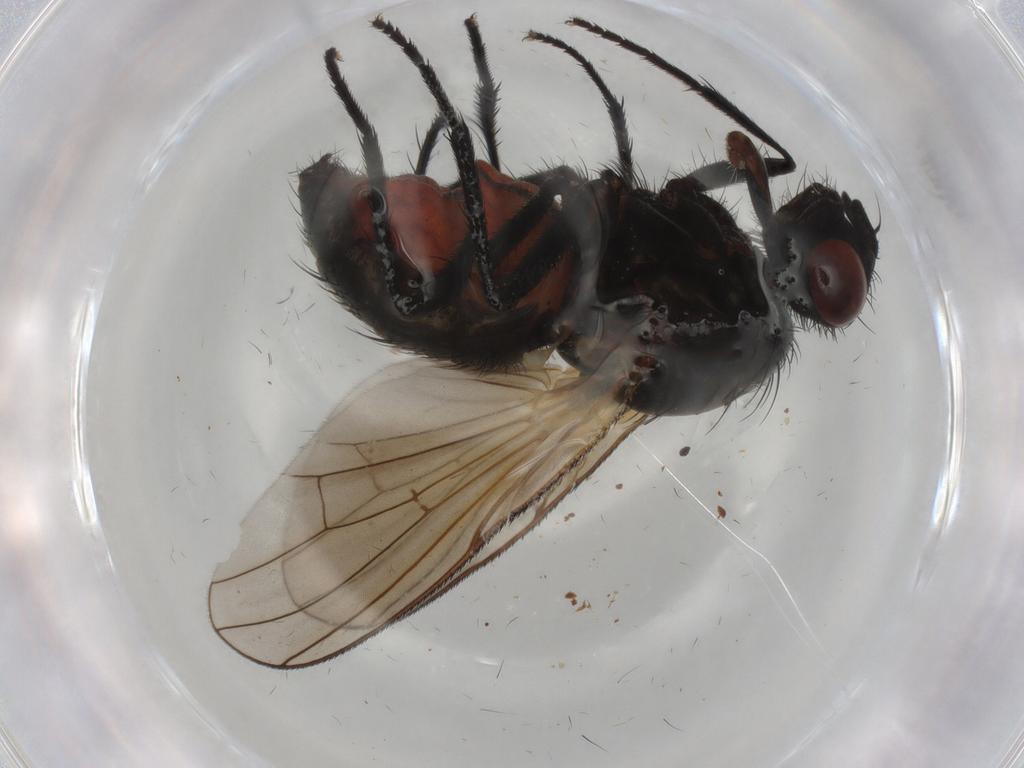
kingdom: Animalia
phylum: Arthropoda
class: Insecta
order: Diptera
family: Anthomyiidae
